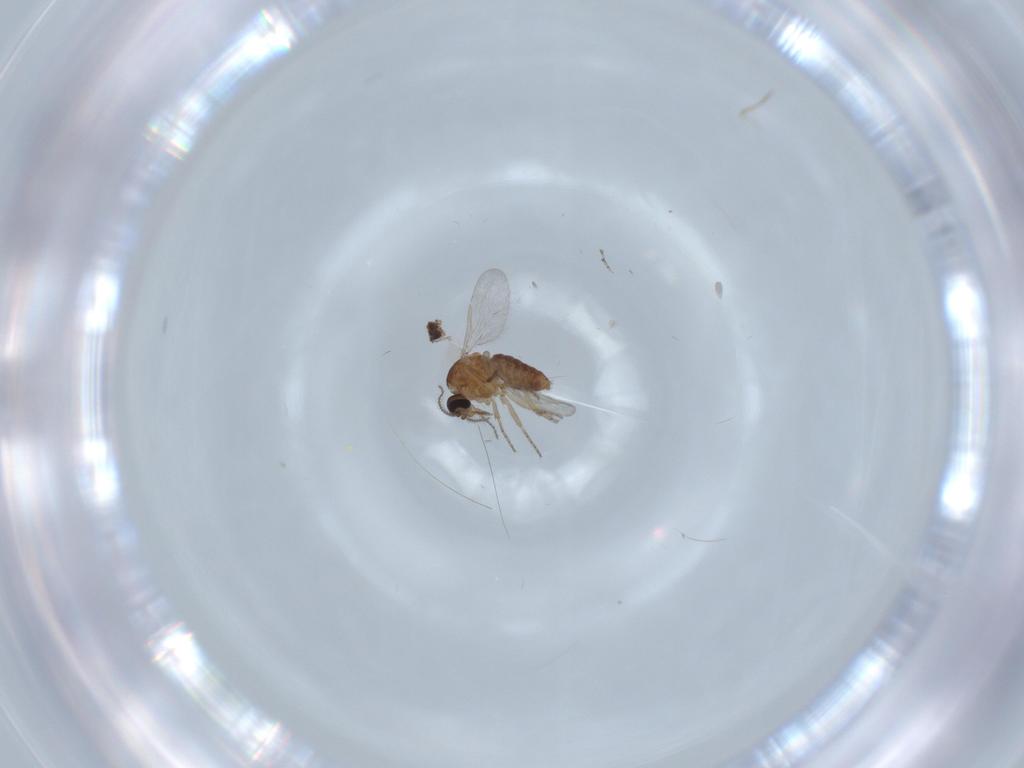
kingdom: Animalia
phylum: Arthropoda
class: Insecta
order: Diptera
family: Ceratopogonidae
